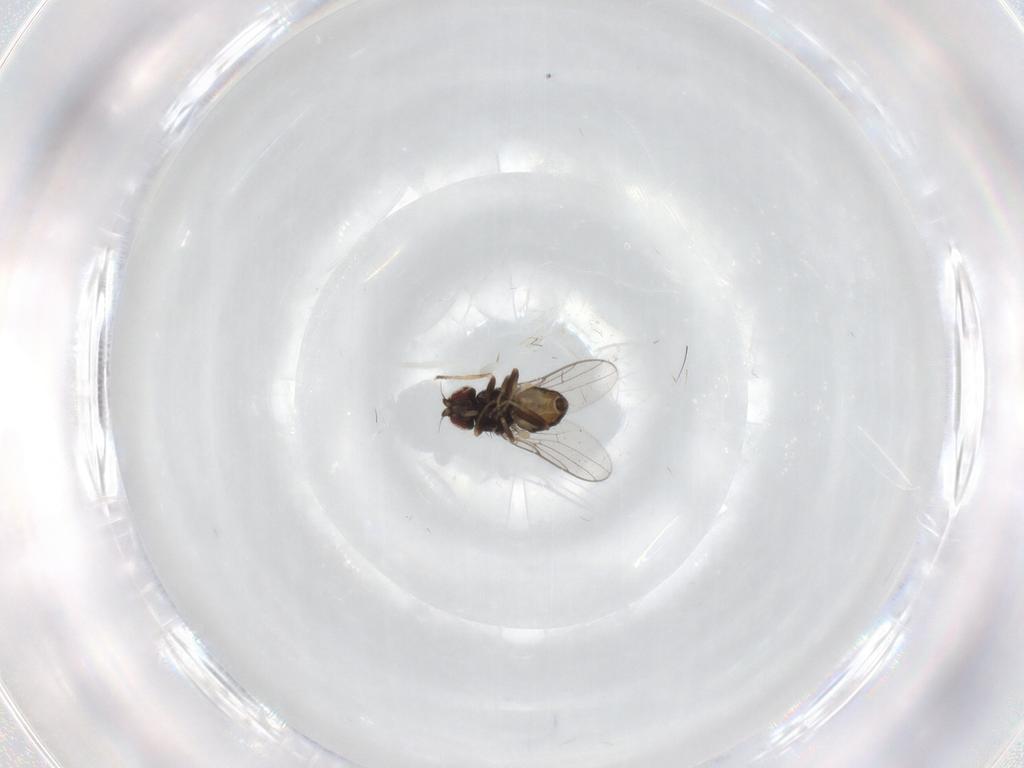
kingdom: Animalia
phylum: Arthropoda
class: Insecta
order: Diptera
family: Chloropidae
